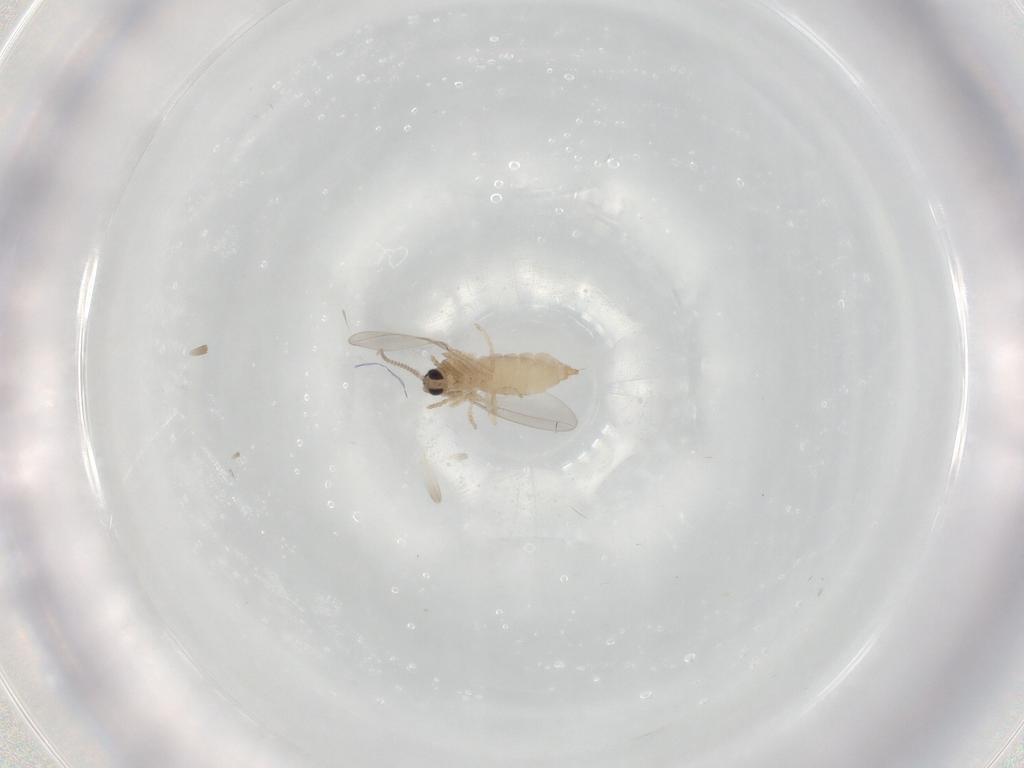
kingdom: Animalia
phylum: Arthropoda
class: Insecta
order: Diptera
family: Cecidomyiidae
